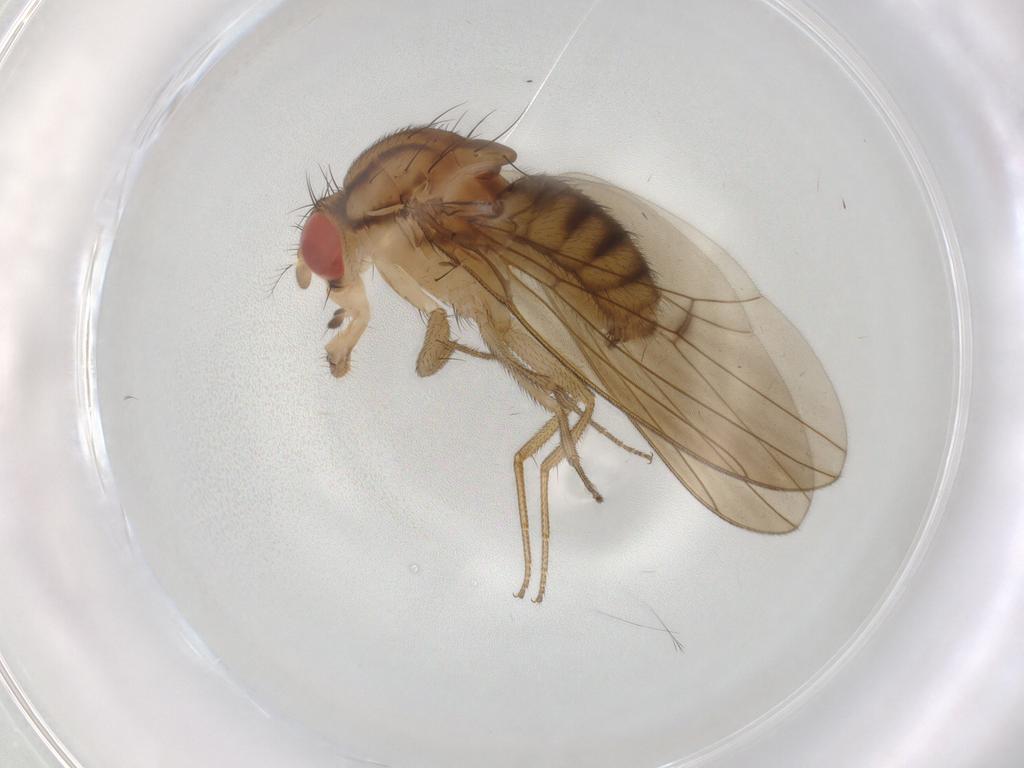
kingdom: Animalia
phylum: Arthropoda
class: Insecta
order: Diptera
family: Drosophilidae
